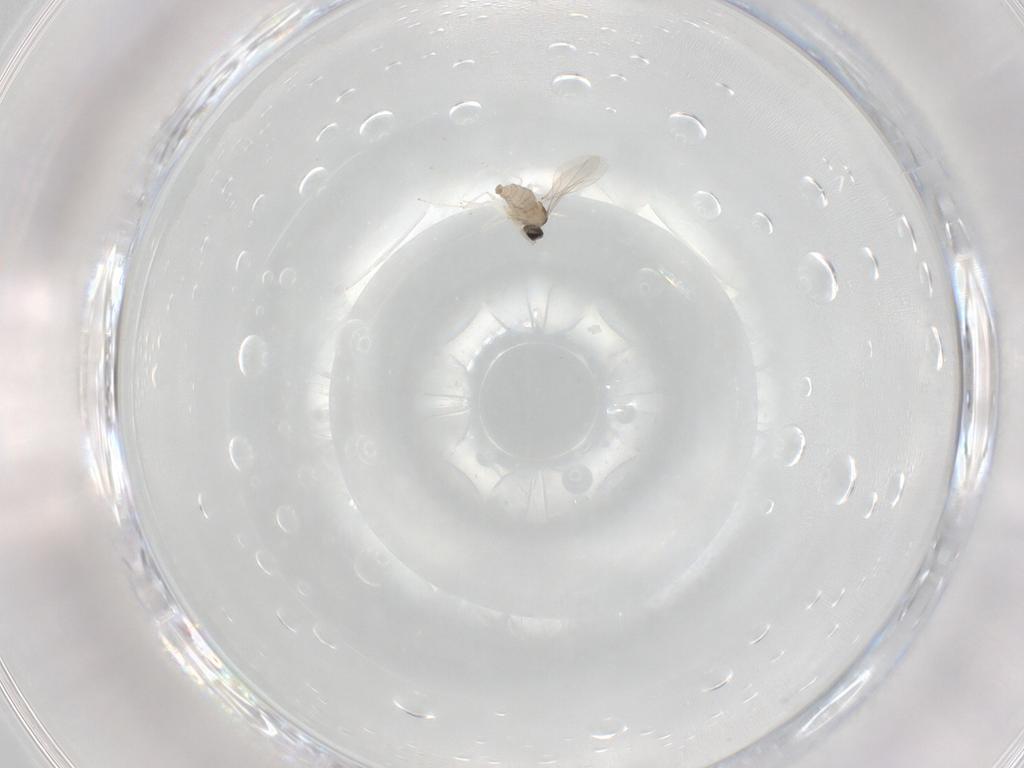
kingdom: Animalia
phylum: Arthropoda
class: Insecta
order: Diptera
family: Cecidomyiidae
